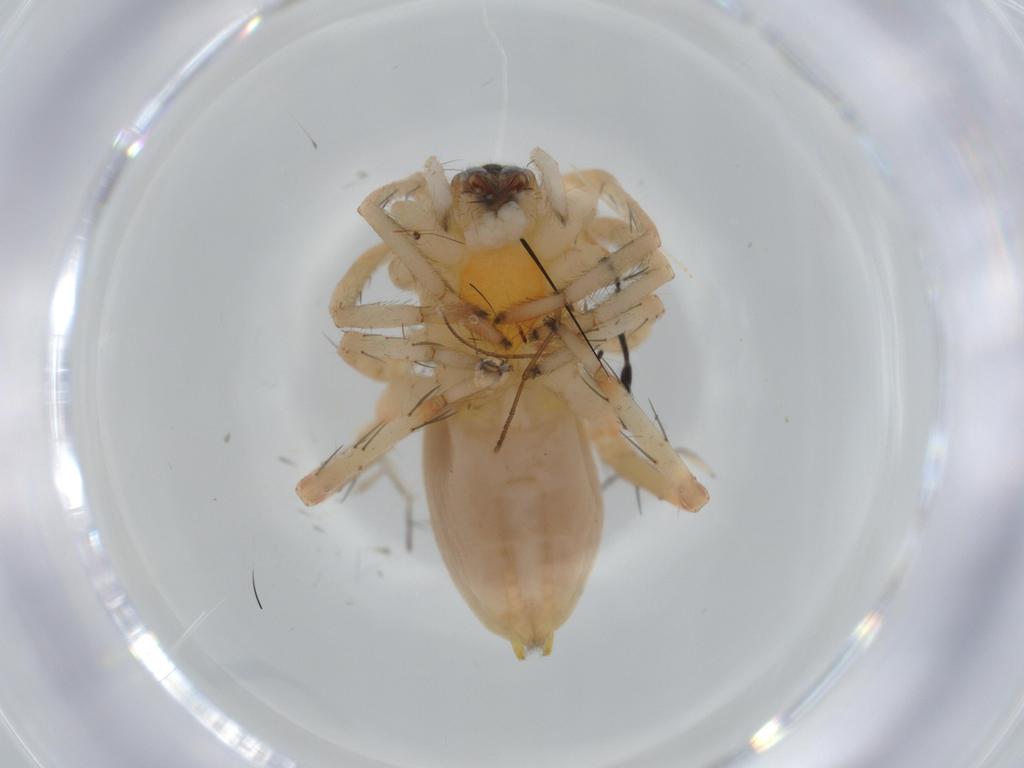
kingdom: Animalia
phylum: Arthropoda
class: Arachnida
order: Araneae
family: Anyphaenidae
